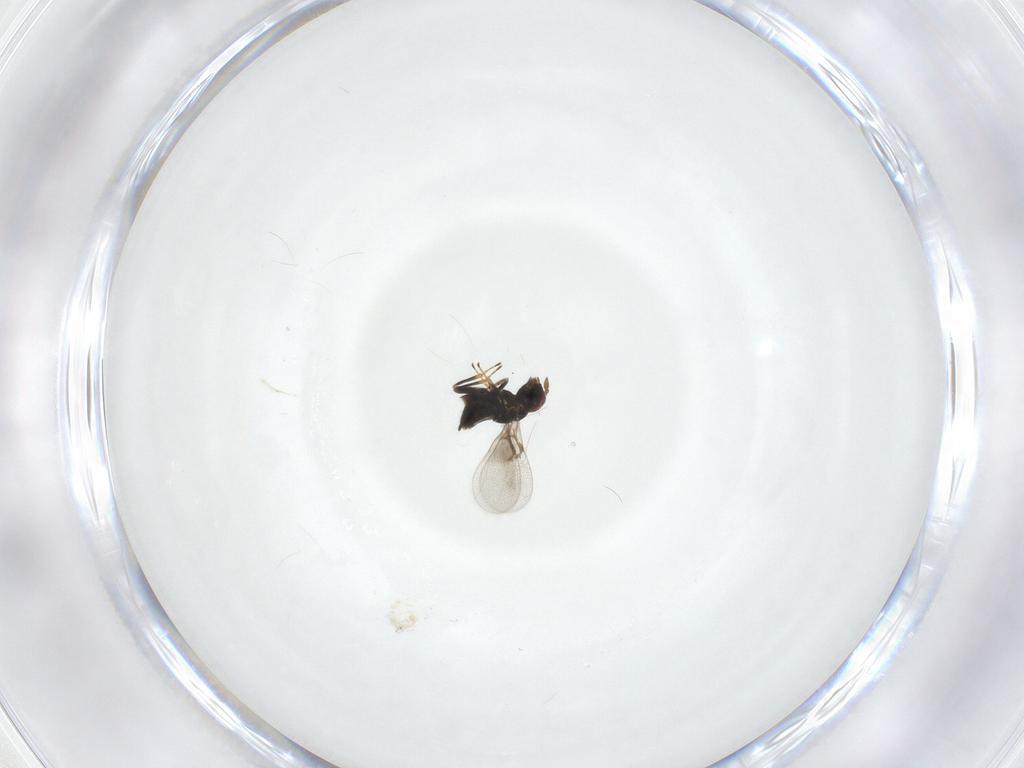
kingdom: Animalia
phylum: Arthropoda
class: Insecta
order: Hymenoptera
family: Trichogrammatidae
